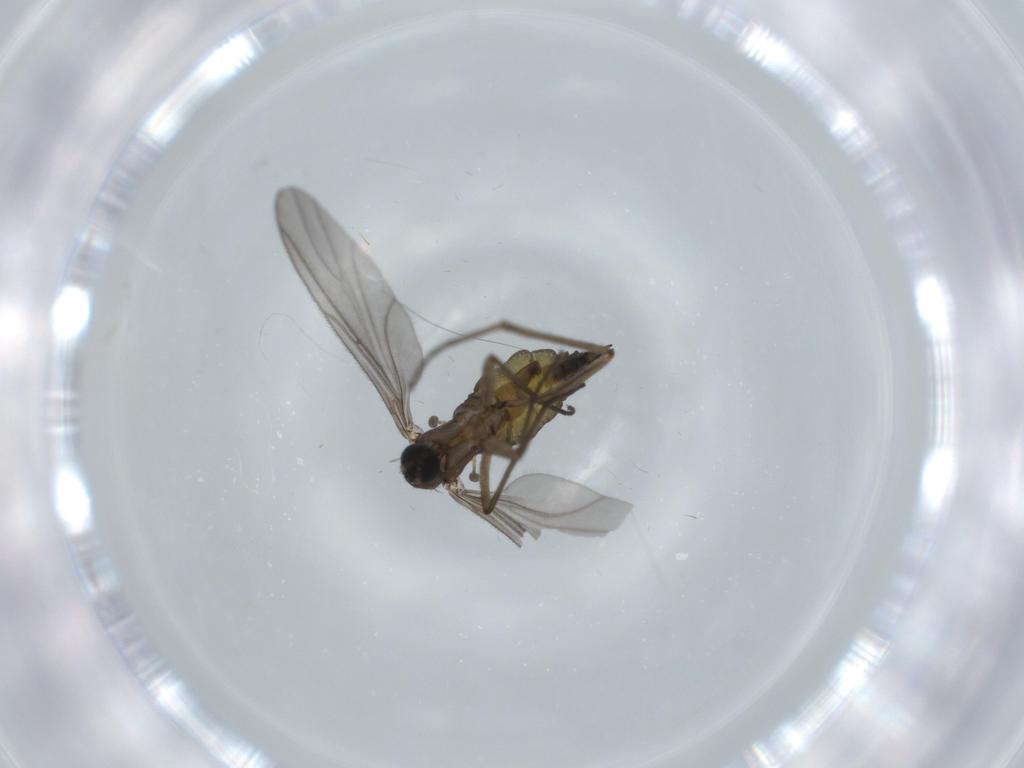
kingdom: Animalia
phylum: Arthropoda
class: Insecta
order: Diptera
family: Sciaridae
